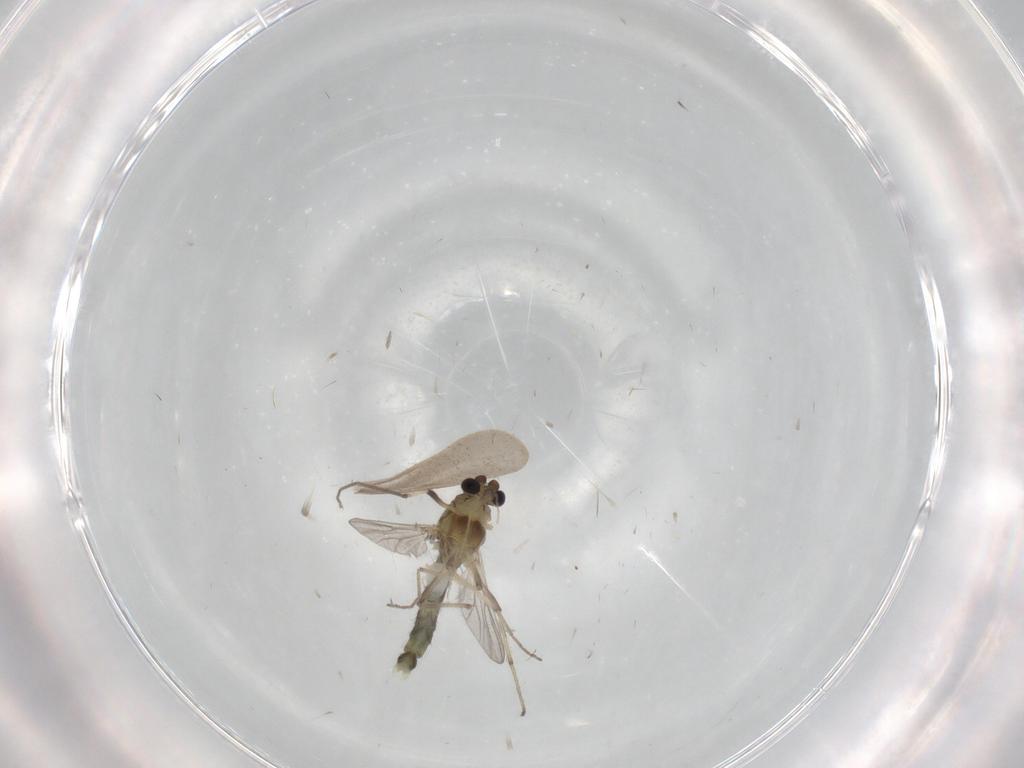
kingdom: Animalia
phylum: Arthropoda
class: Insecta
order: Diptera
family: Chironomidae
